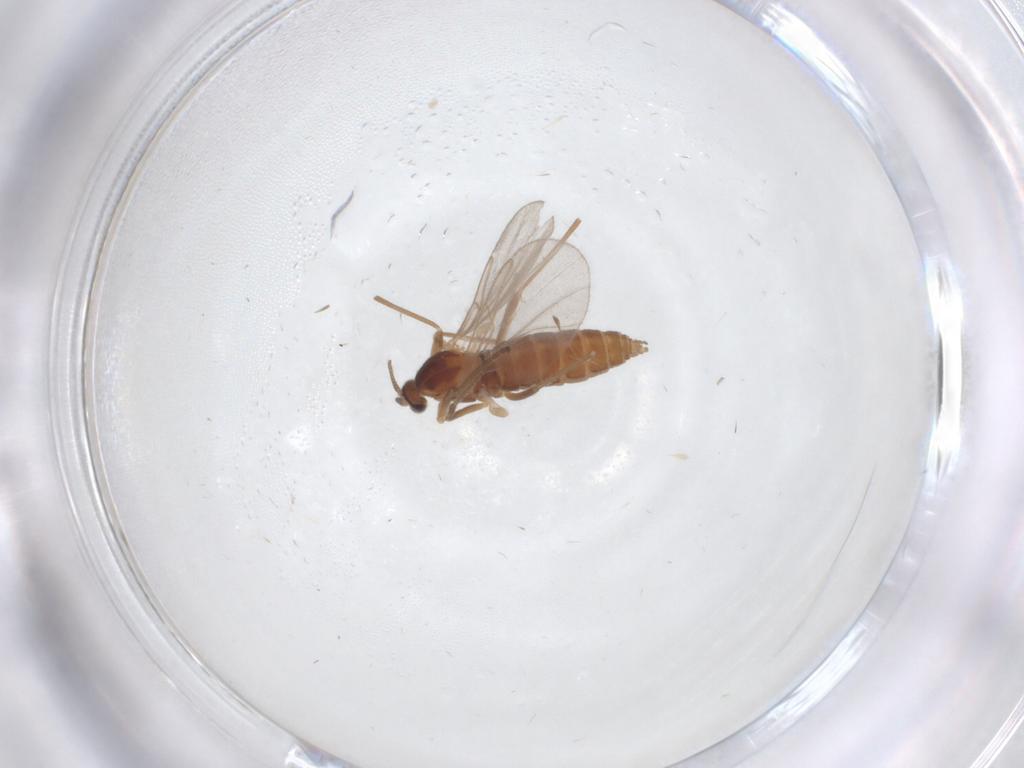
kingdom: Animalia
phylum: Arthropoda
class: Insecta
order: Diptera
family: Cecidomyiidae
